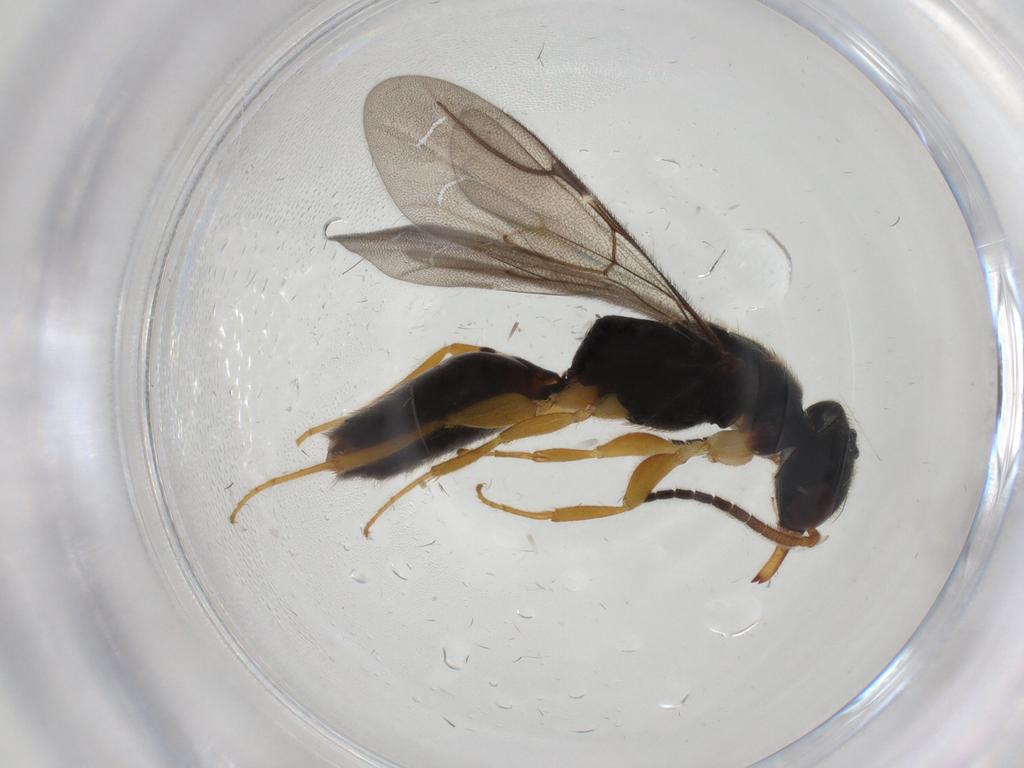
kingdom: Animalia
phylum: Arthropoda
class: Insecta
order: Hymenoptera
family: Bethylidae
